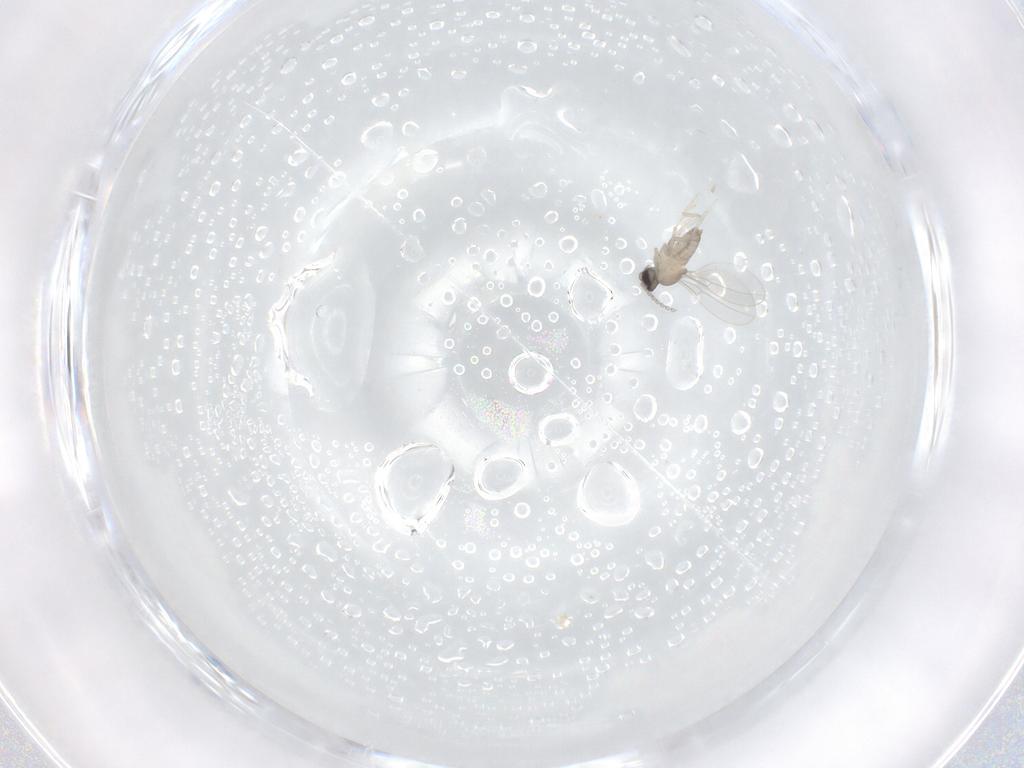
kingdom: Animalia
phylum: Arthropoda
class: Insecta
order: Diptera
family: Cecidomyiidae
